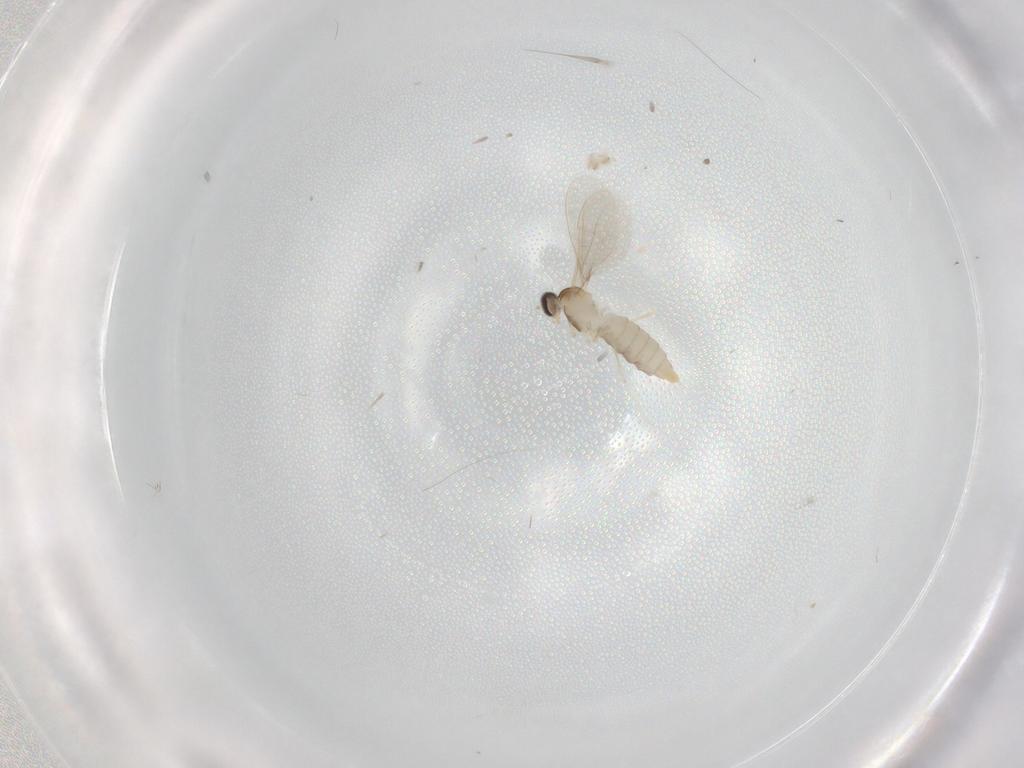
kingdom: Animalia
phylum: Arthropoda
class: Insecta
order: Diptera
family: Cecidomyiidae
